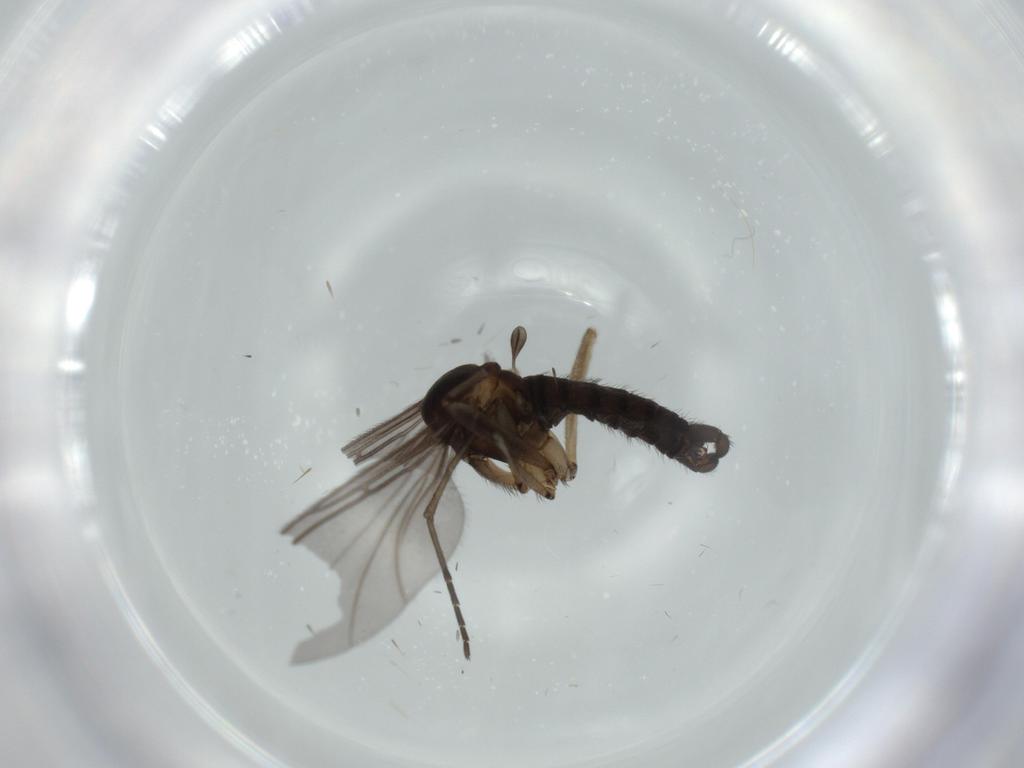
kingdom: Animalia
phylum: Arthropoda
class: Insecta
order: Diptera
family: Sciaridae
